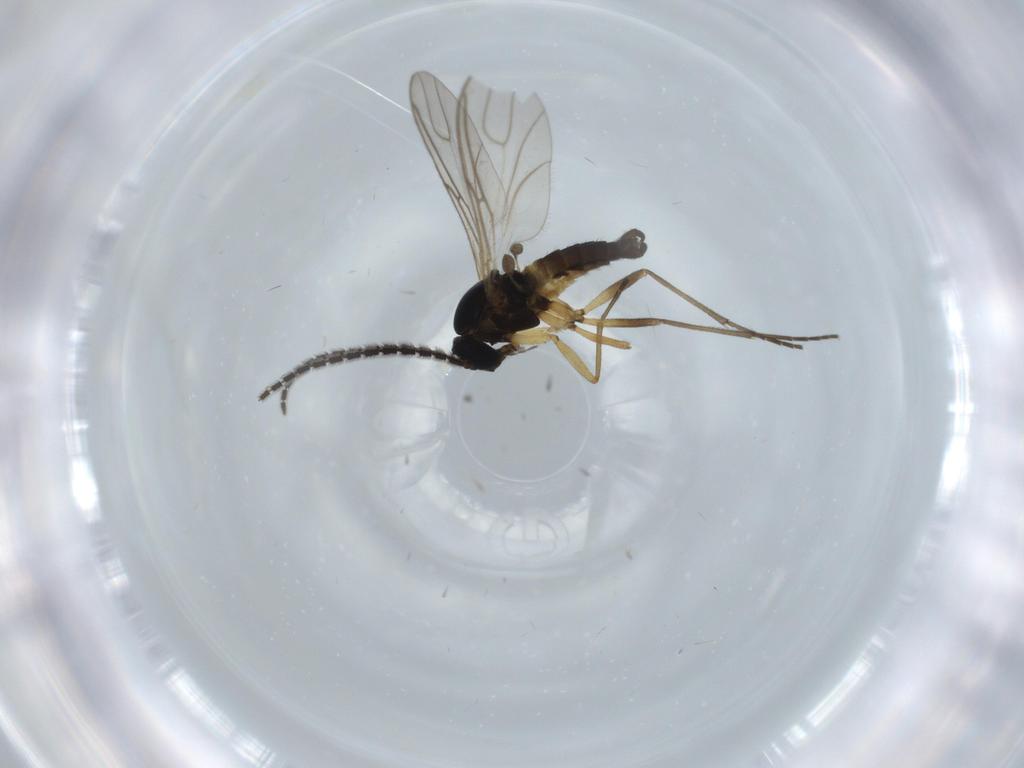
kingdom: Animalia
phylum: Arthropoda
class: Insecta
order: Diptera
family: Sciaridae
